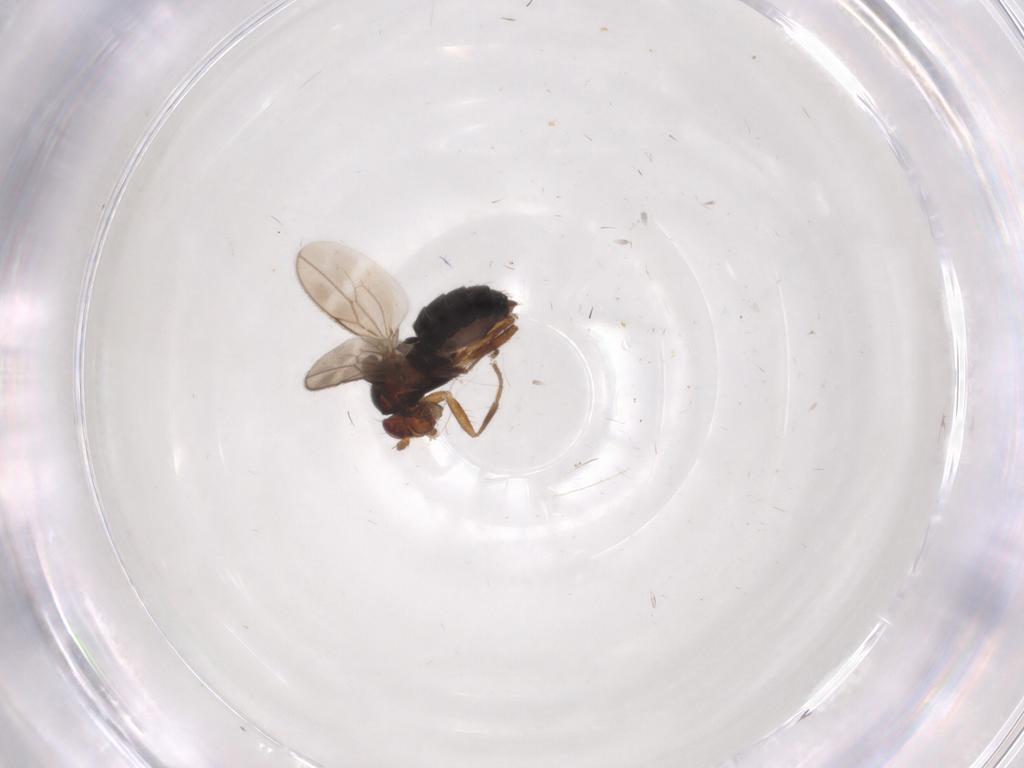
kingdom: Animalia
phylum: Arthropoda
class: Insecta
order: Diptera
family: Sphaeroceridae
